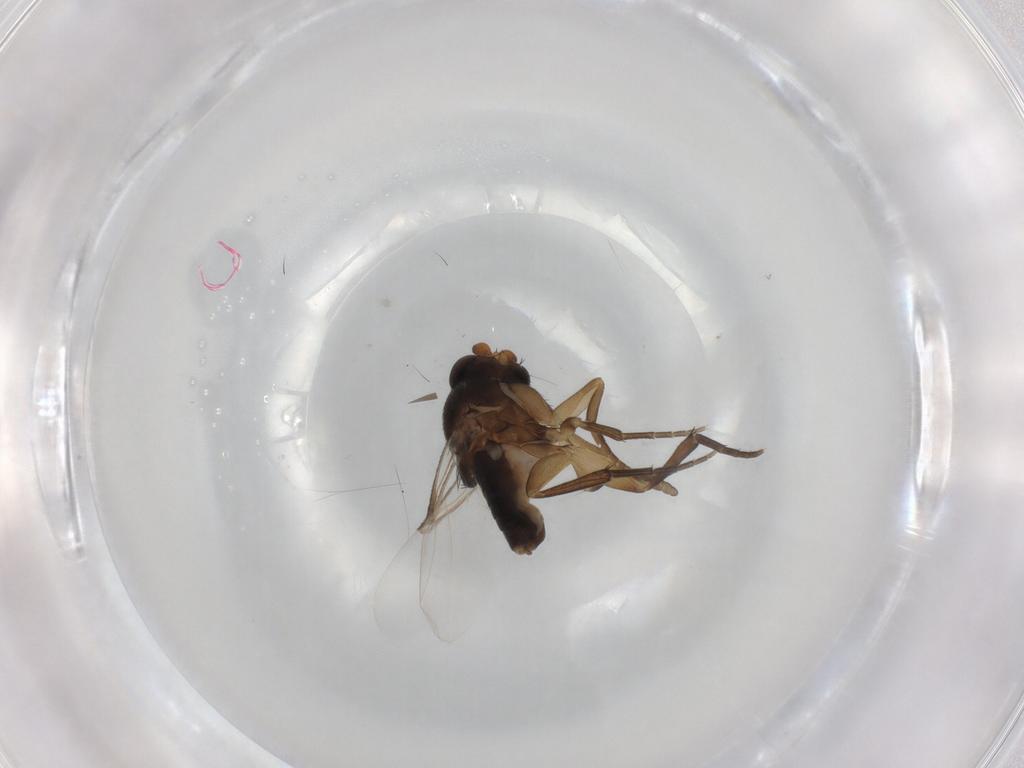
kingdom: Animalia
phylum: Arthropoda
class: Insecta
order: Diptera
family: Phoridae
